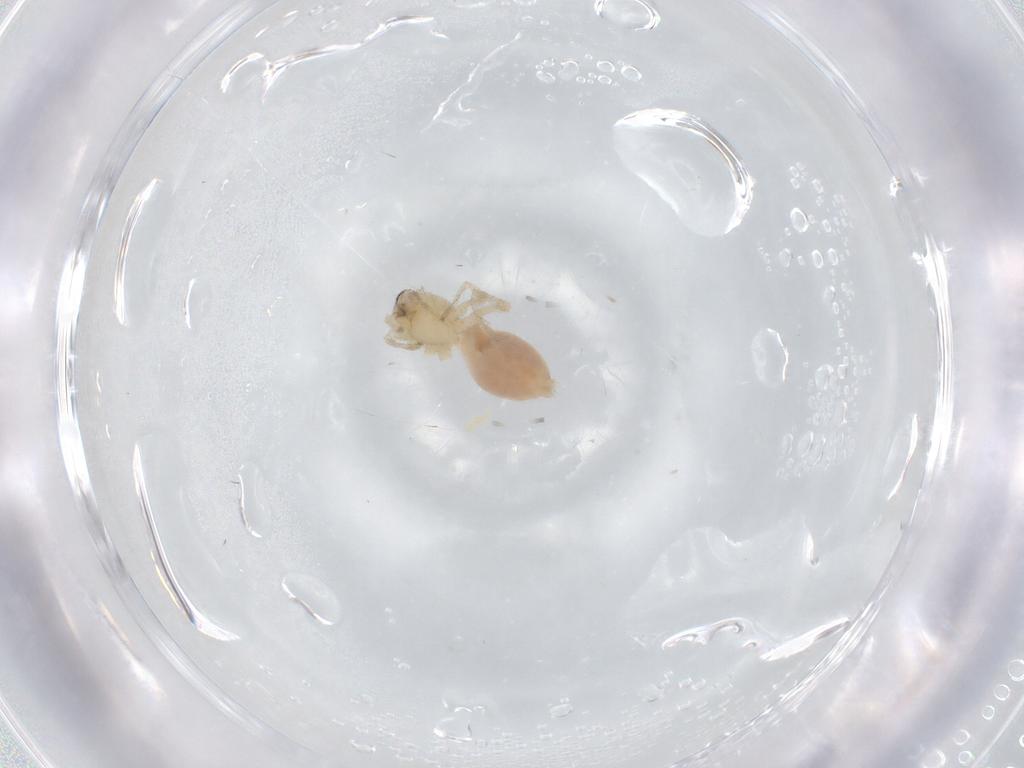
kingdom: Animalia
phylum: Arthropoda
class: Arachnida
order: Araneae
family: Anyphaenidae
